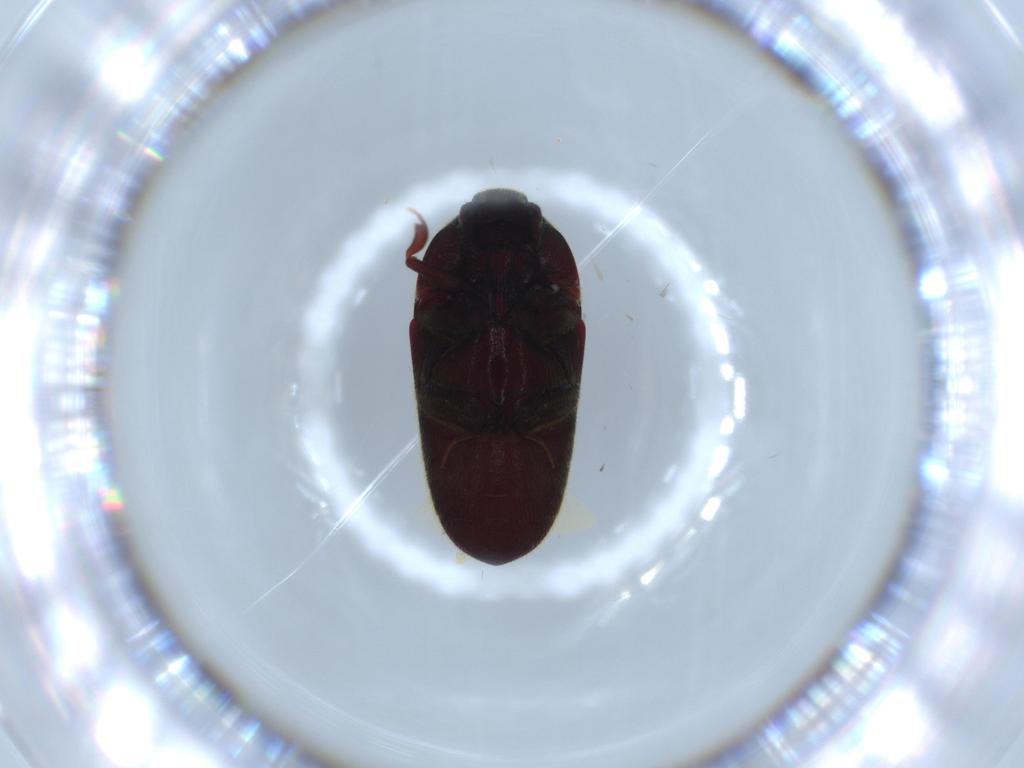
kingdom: Animalia
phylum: Arthropoda
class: Insecta
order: Coleoptera
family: Throscidae
